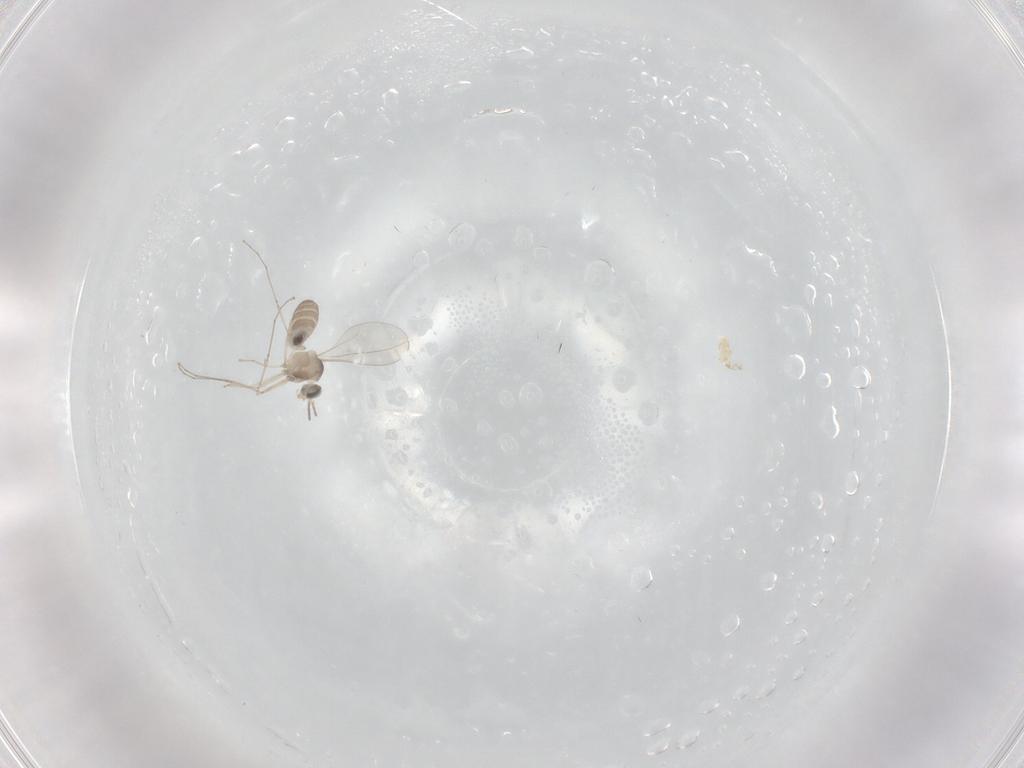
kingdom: Animalia
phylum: Arthropoda
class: Insecta
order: Diptera
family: Cecidomyiidae
